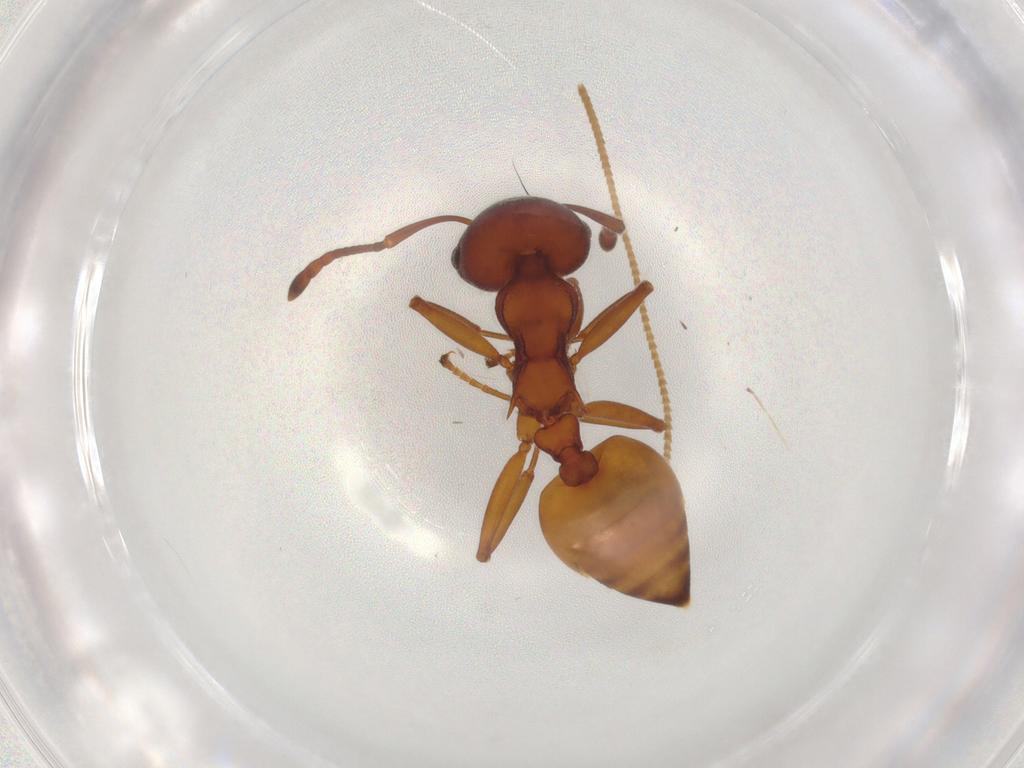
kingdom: Animalia
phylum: Arthropoda
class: Insecta
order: Hymenoptera
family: Formicidae
